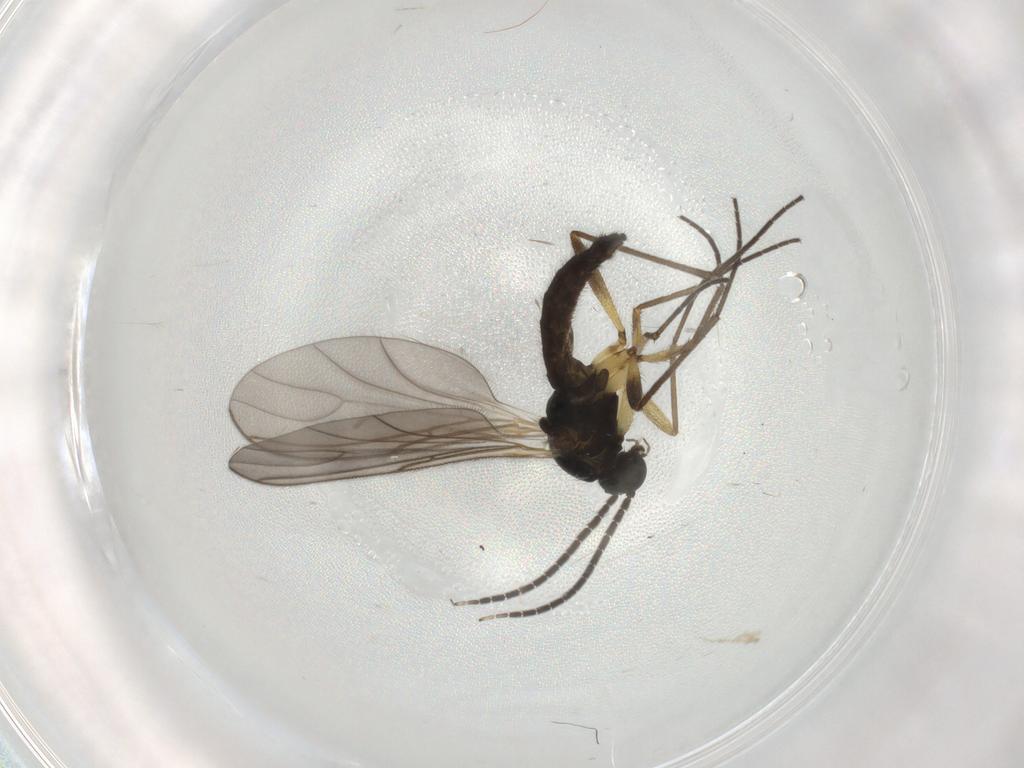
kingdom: Animalia
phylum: Arthropoda
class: Insecta
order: Diptera
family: Sciaridae
